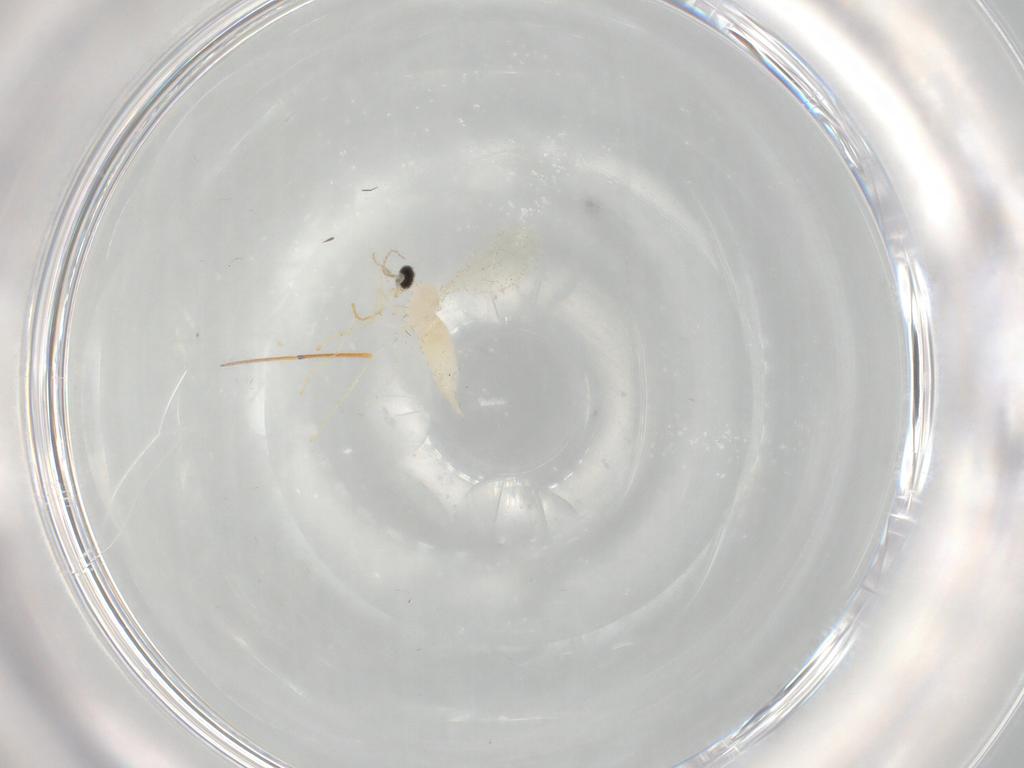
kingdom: Animalia
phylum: Arthropoda
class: Insecta
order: Diptera
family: Cecidomyiidae
